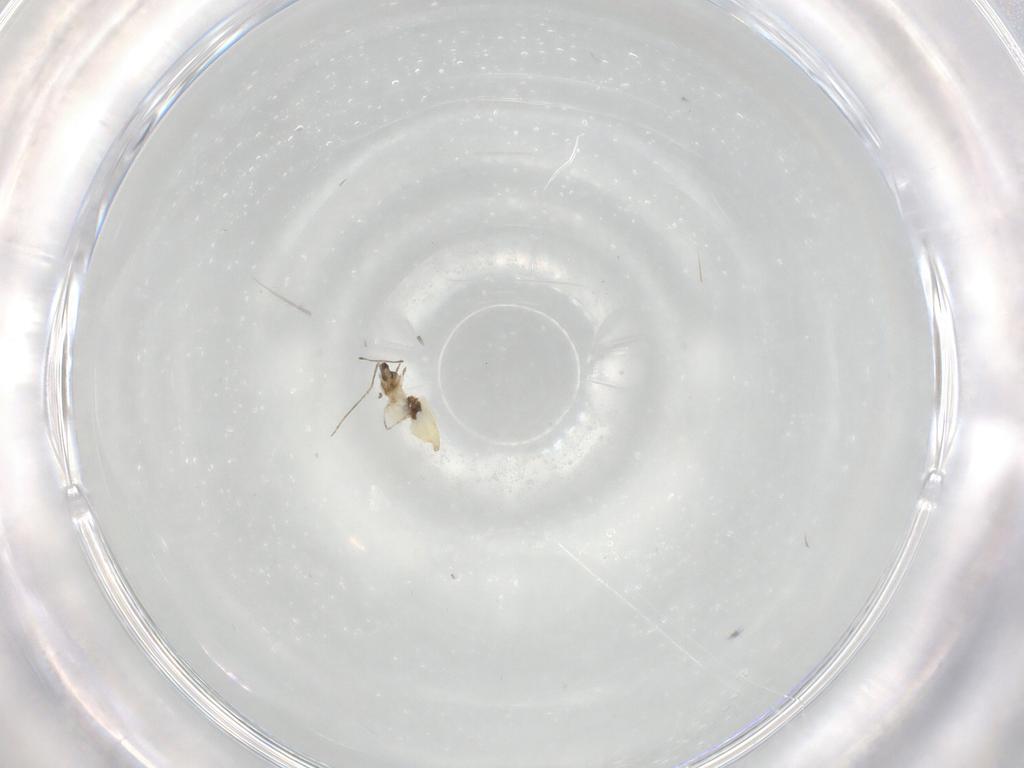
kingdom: Animalia
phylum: Arthropoda
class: Insecta
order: Diptera
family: Cecidomyiidae
